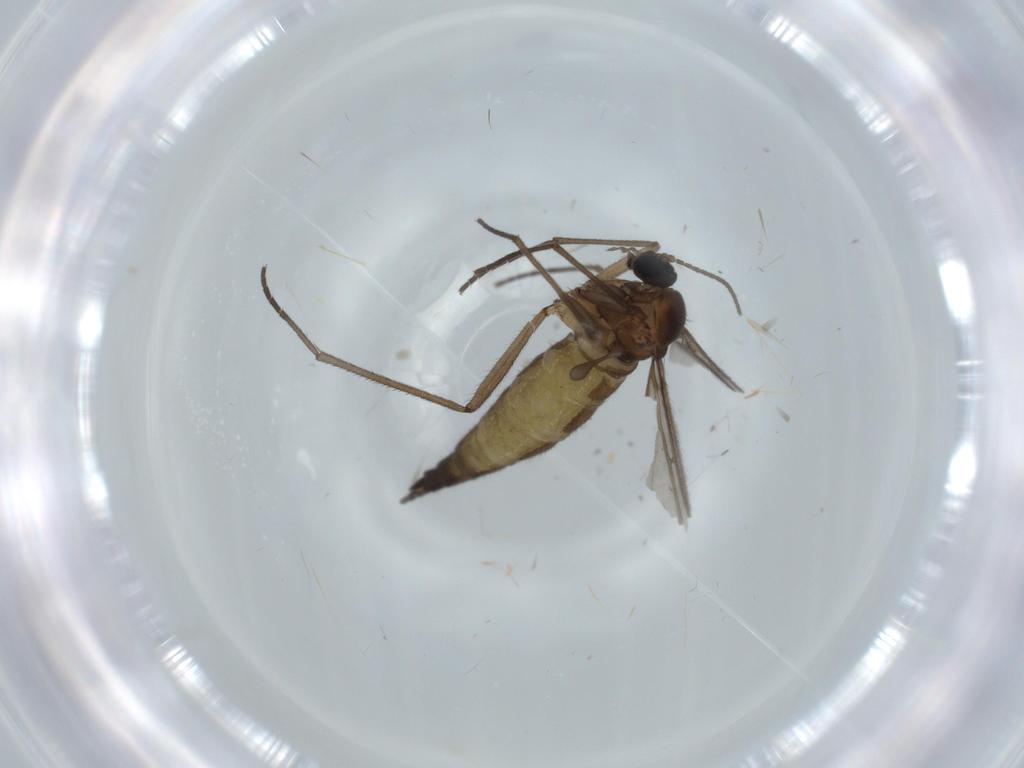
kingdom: Animalia
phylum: Arthropoda
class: Insecta
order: Diptera
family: Sciaridae
